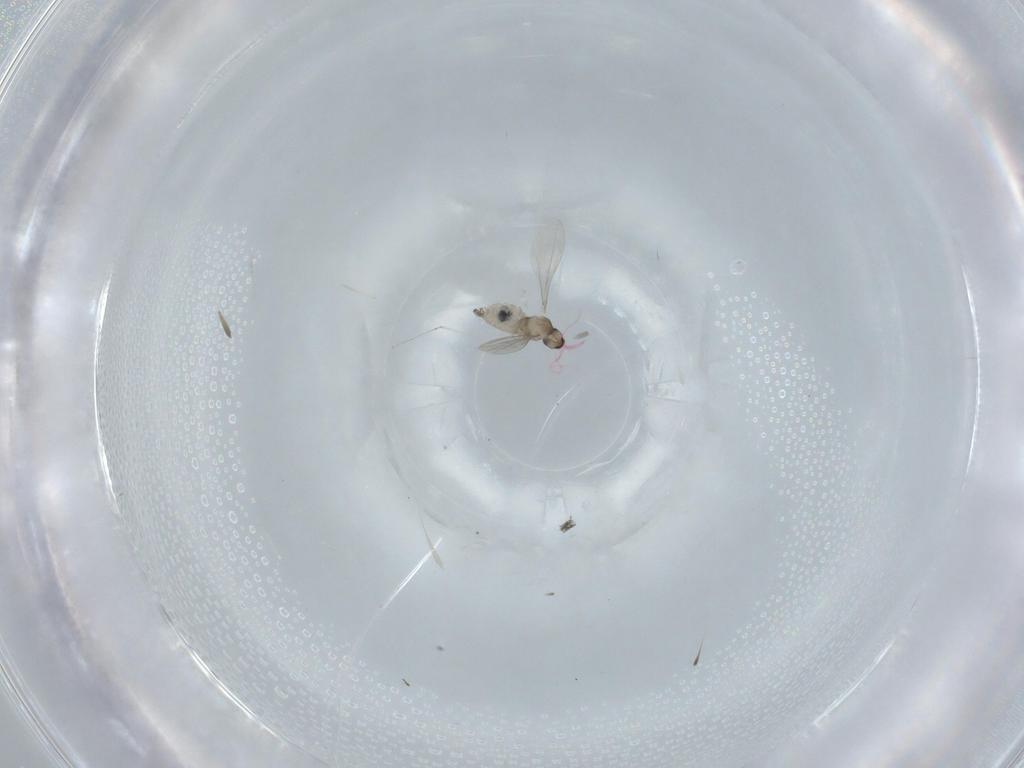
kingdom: Animalia
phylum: Arthropoda
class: Insecta
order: Diptera
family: Cecidomyiidae
